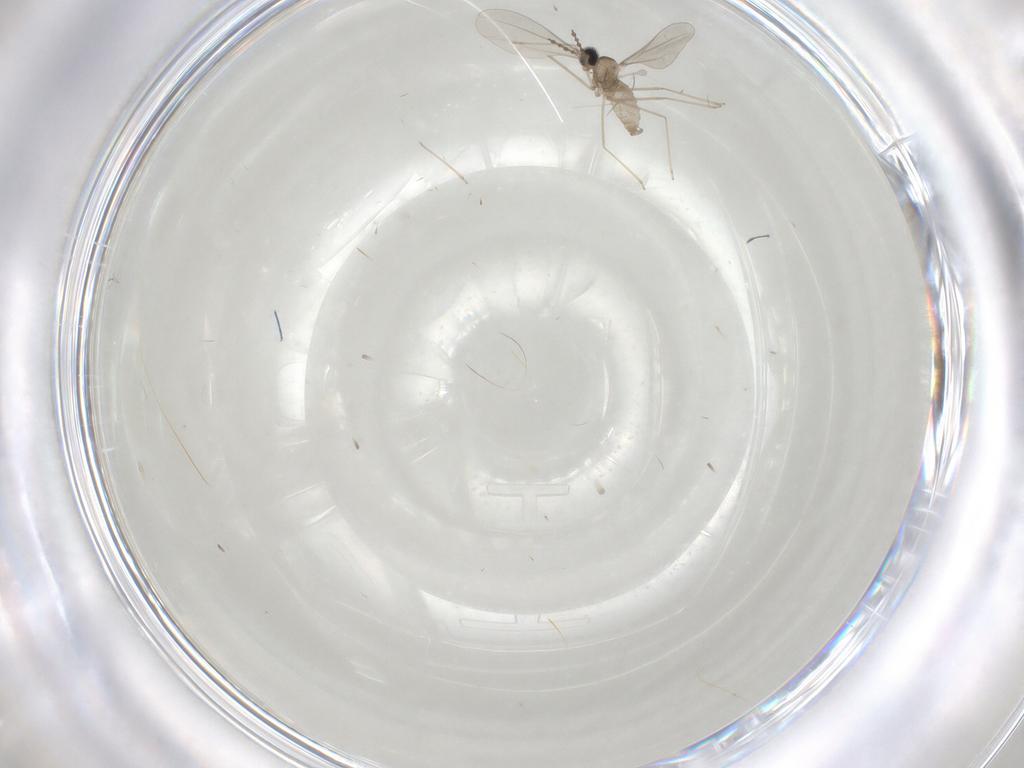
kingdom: Animalia
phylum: Arthropoda
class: Insecta
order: Diptera
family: Cecidomyiidae
